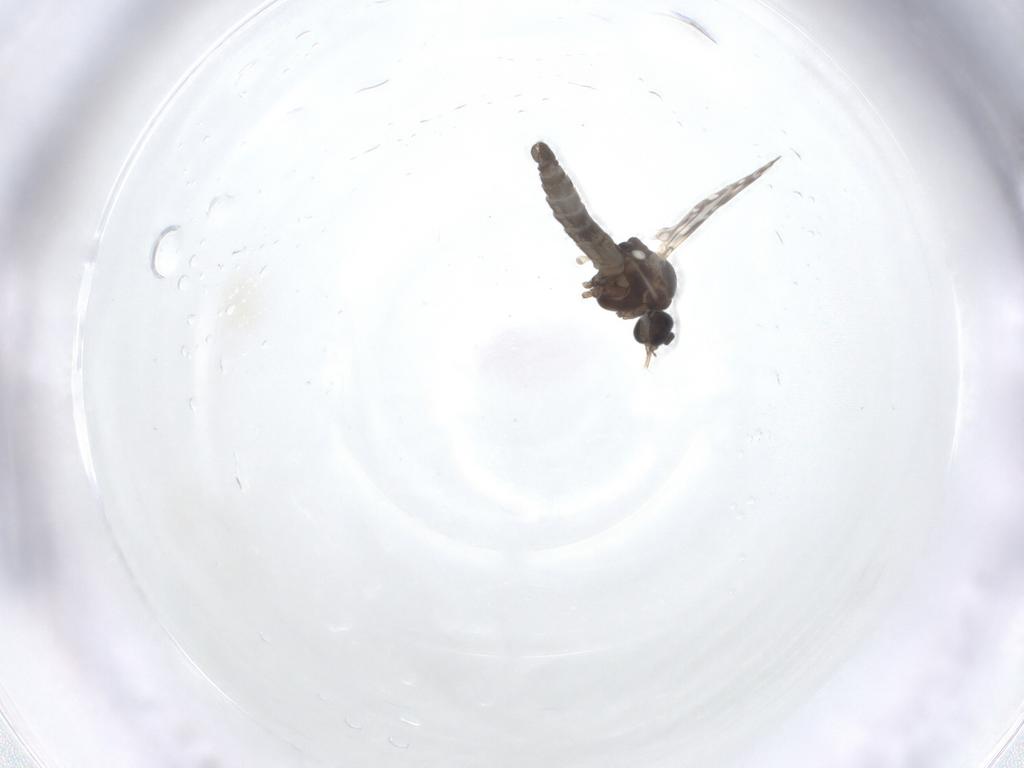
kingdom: Animalia
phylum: Arthropoda
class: Insecta
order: Diptera
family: Ceratopogonidae
